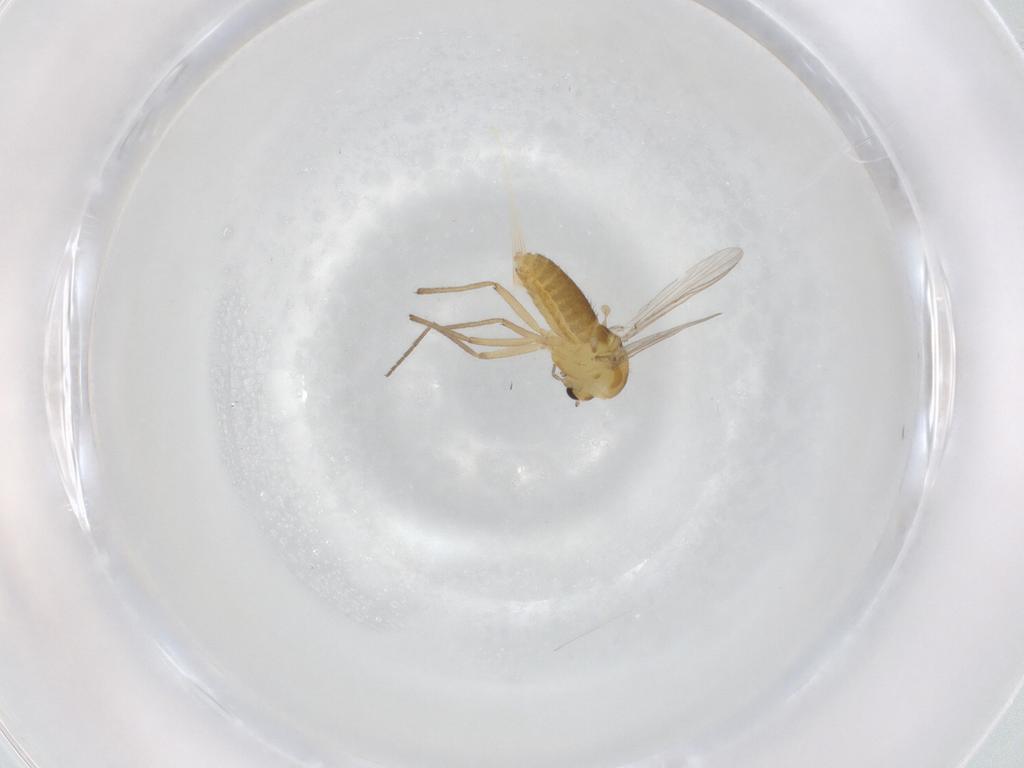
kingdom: Animalia
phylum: Arthropoda
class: Insecta
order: Diptera
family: Chironomidae
